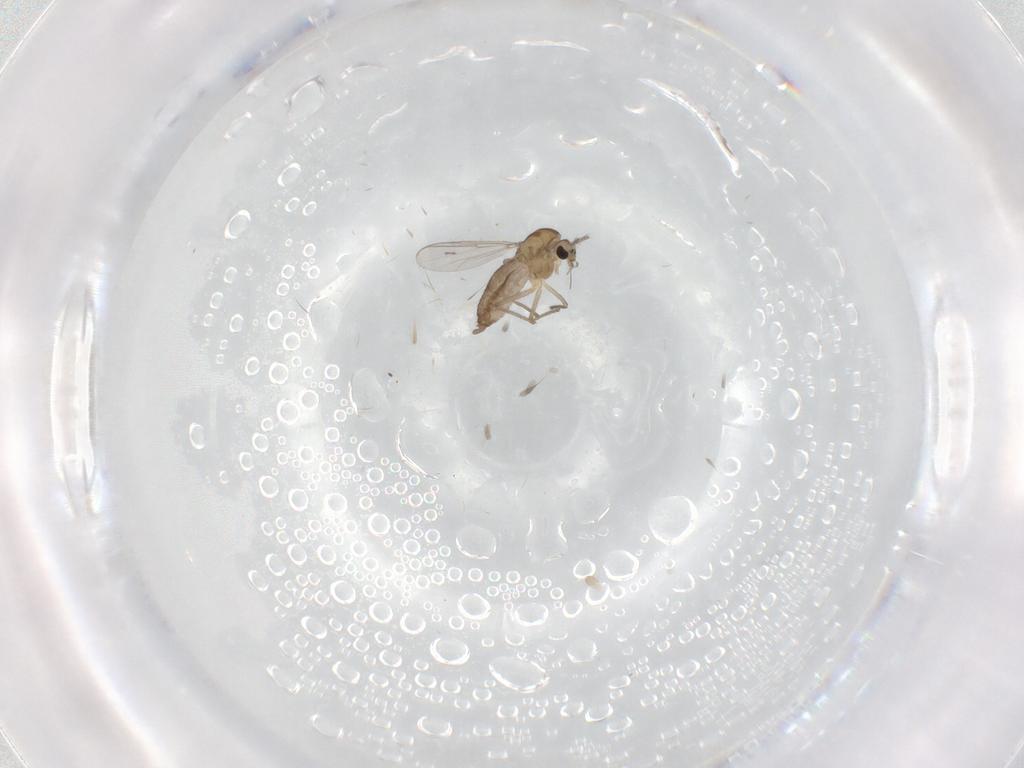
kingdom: Animalia
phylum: Arthropoda
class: Insecta
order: Diptera
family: Chironomidae
